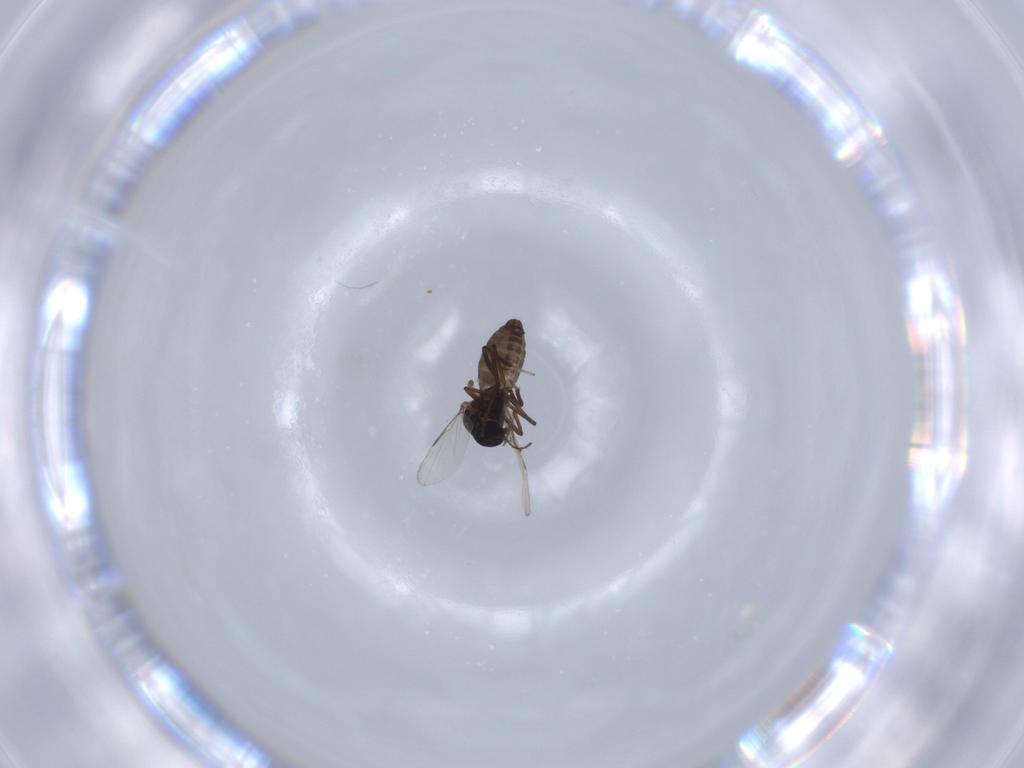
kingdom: Animalia
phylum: Arthropoda
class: Insecta
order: Diptera
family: Ceratopogonidae
